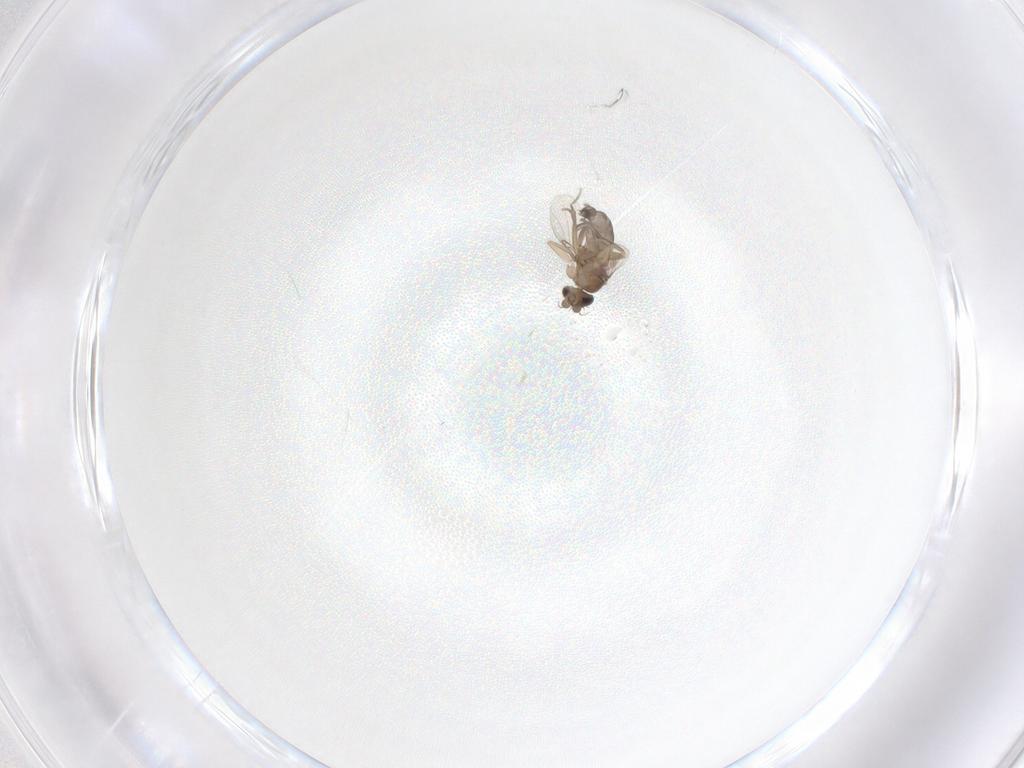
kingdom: Animalia
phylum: Arthropoda
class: Insecta
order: Diptera
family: Phoridae
